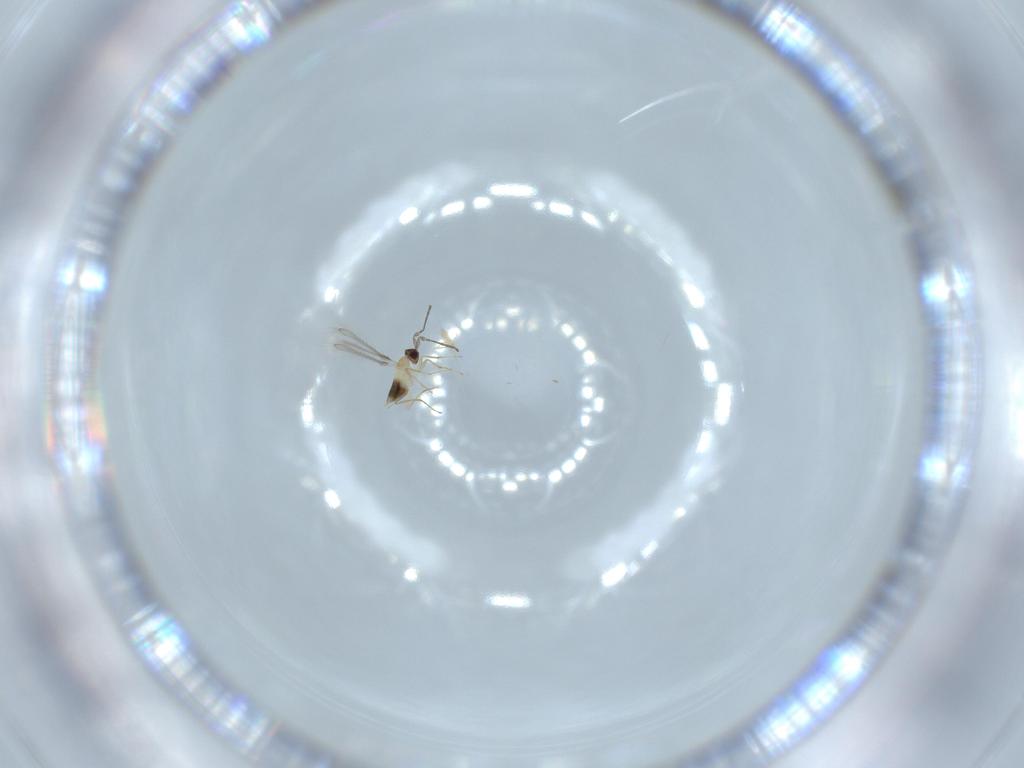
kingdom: Animalia
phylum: Arthropoda
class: Insecta
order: Hymenoptera
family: Mymaridae
